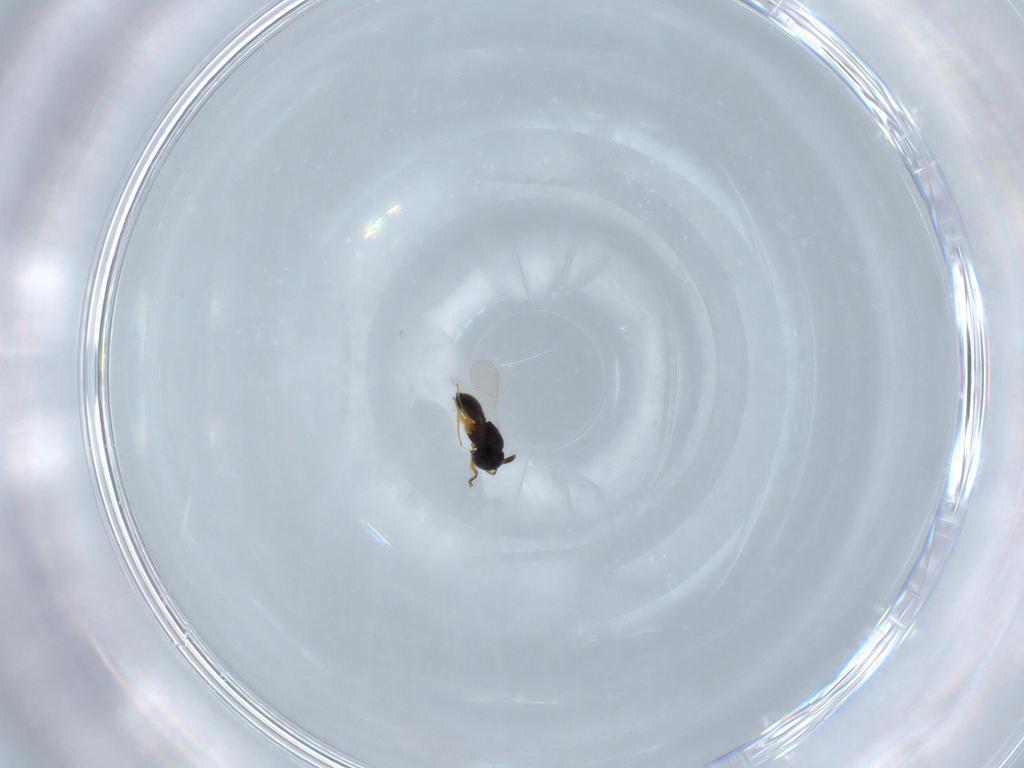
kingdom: Animalia
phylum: Arthropoda
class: Insecta
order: Hymenoptera
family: Scelionidae
